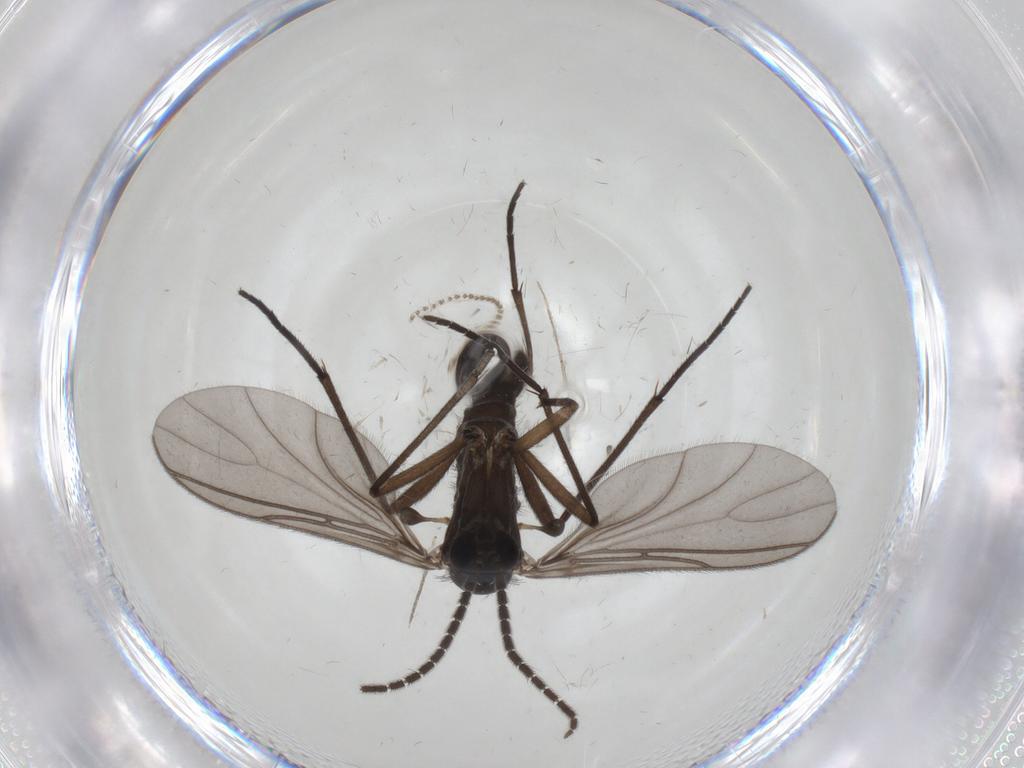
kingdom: Animalia
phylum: Arthropoda
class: Insecta
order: Diptera
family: Sciaridae
